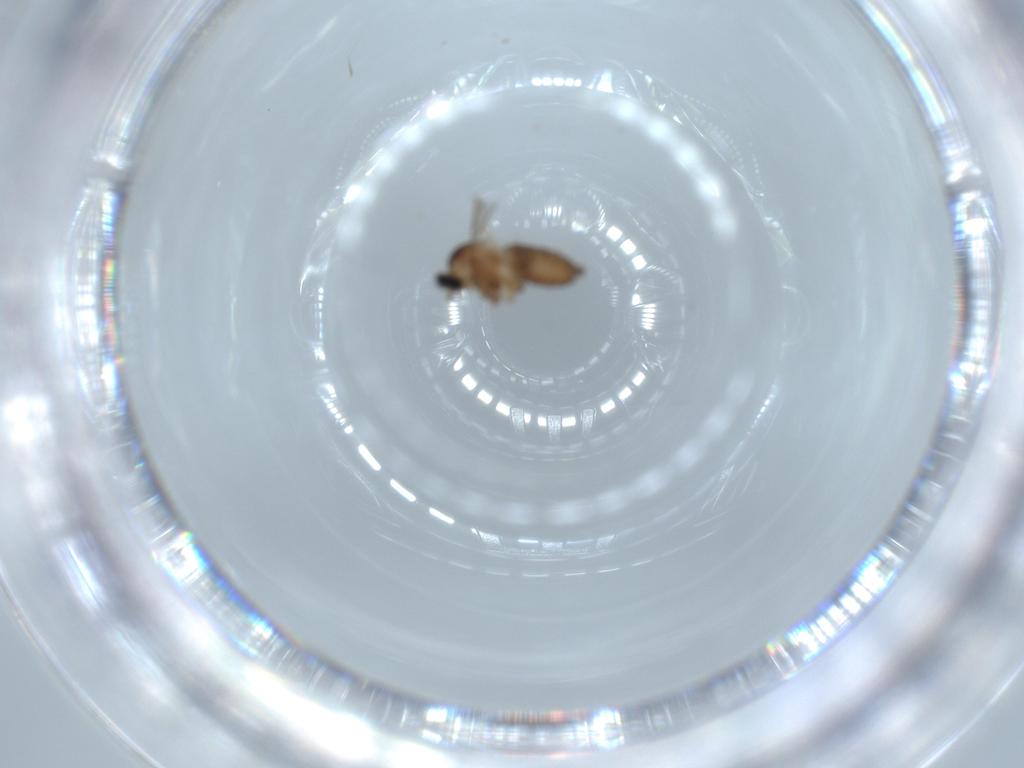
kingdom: Animalia
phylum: Arthropoda
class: Insecta
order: Diptera
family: Cecidomyiidae
